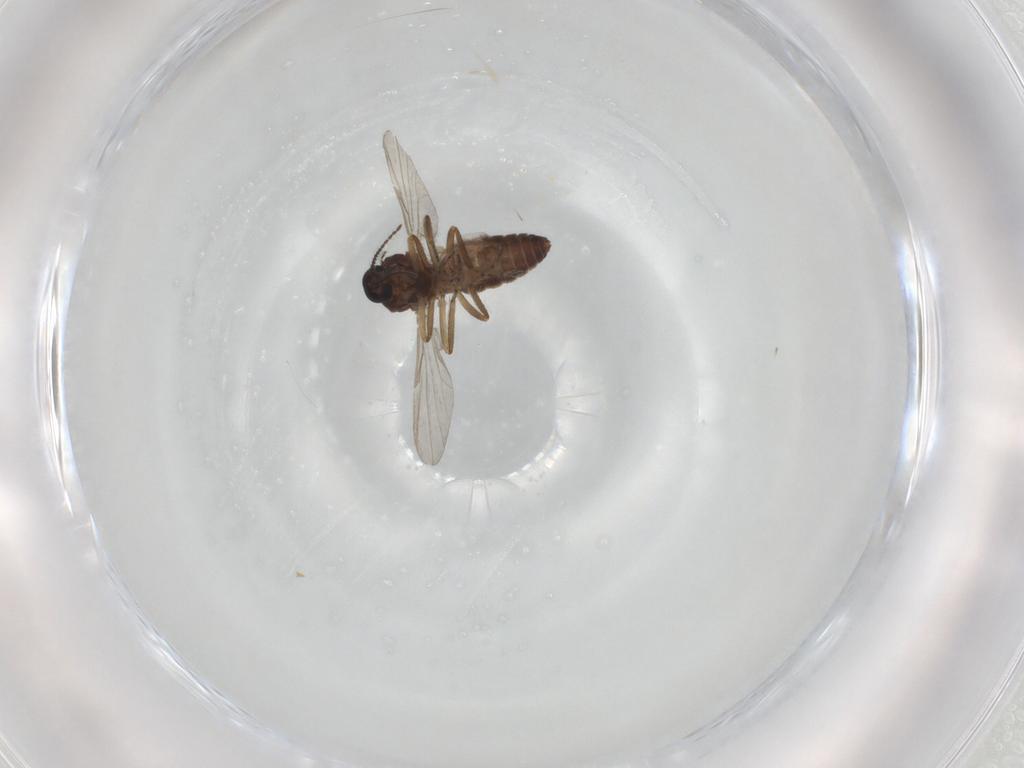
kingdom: Animalia
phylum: Arthropoda
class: Insecta
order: Diptera
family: Ceratopogonidae
